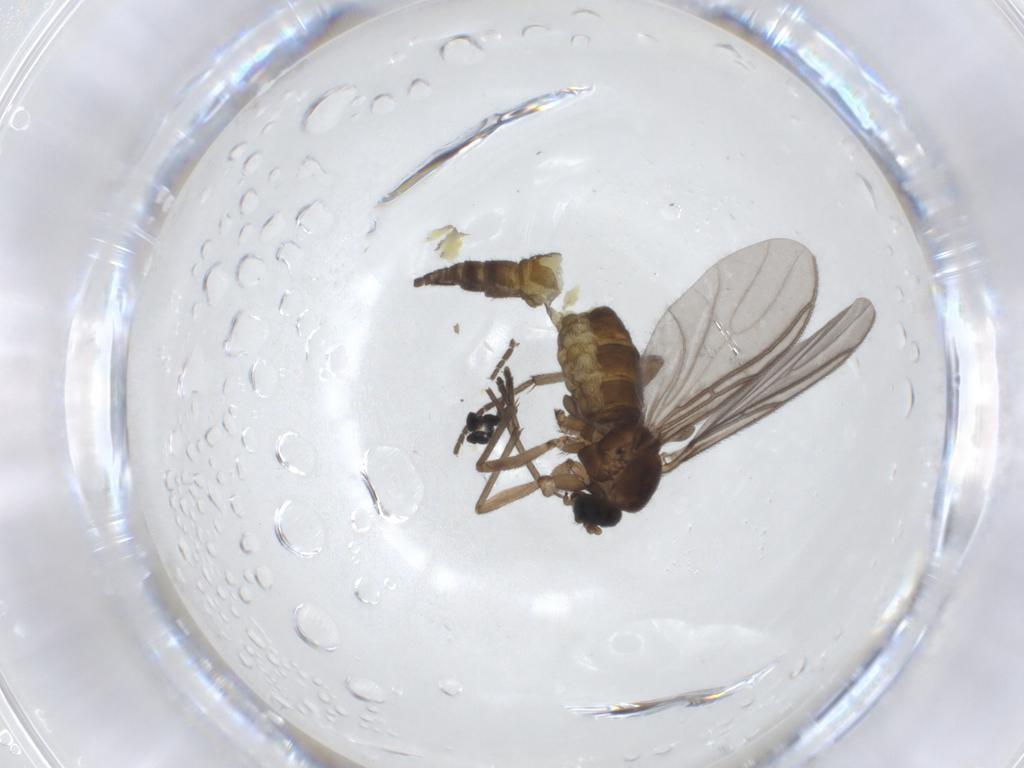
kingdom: Animalia
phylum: Arthropoda
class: Insecta
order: Diptera
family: Sciaridae
